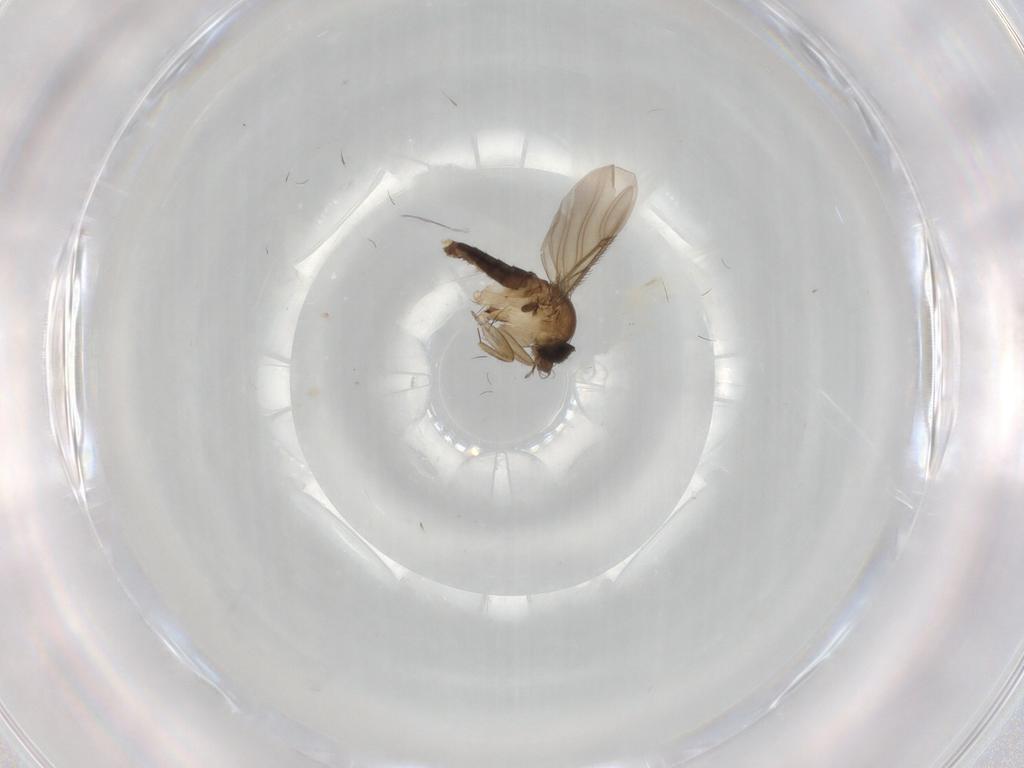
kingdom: Animalia
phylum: Arthropoda
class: Insecta
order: Diptera
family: Phoridae
